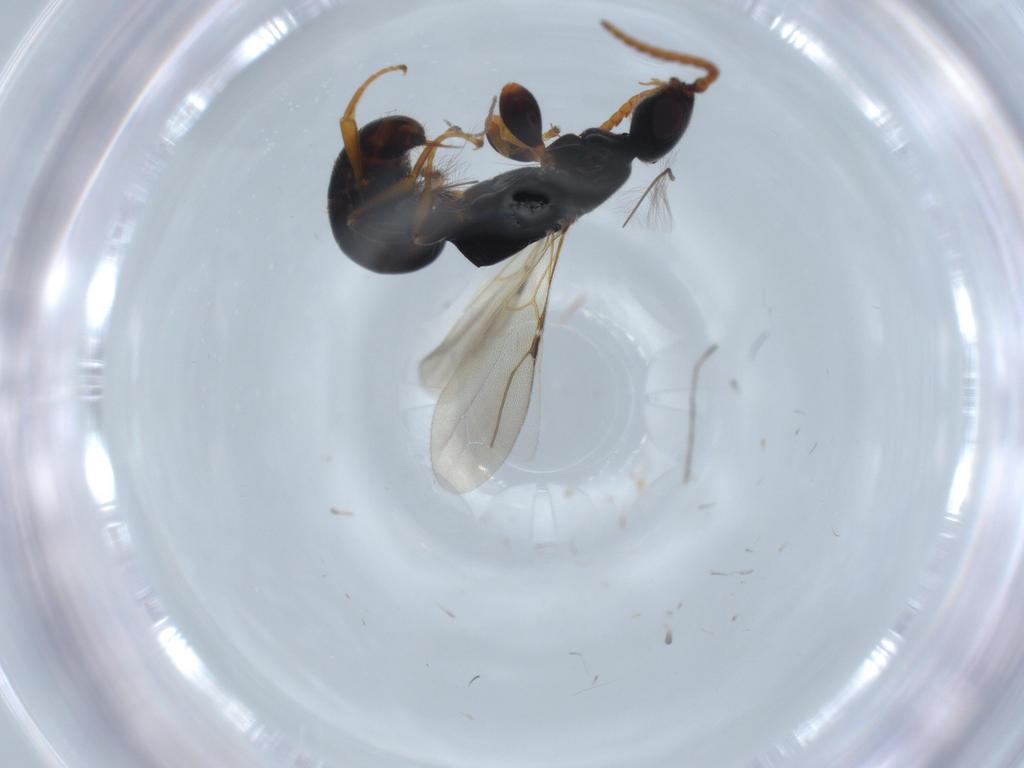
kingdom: Animalia
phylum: Arthropoda
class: Insecta
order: Hymenoptera
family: Bethylidae
